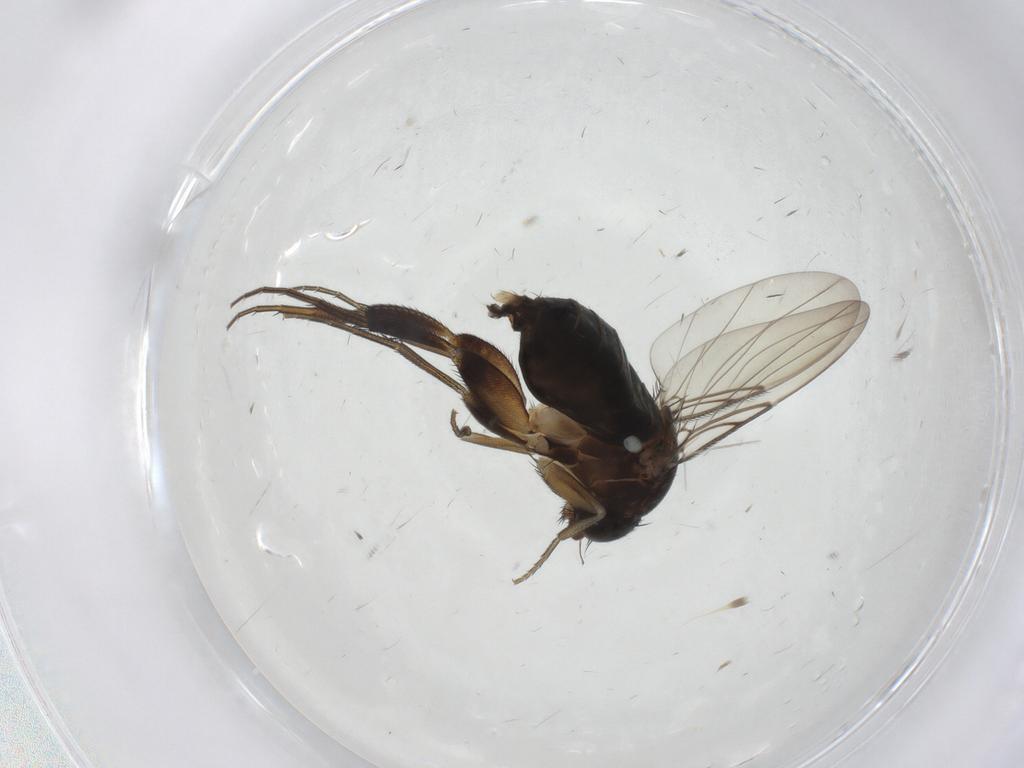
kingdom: Animalia
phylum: Arthropoda
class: Insecta
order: Diptera
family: Phoridae
